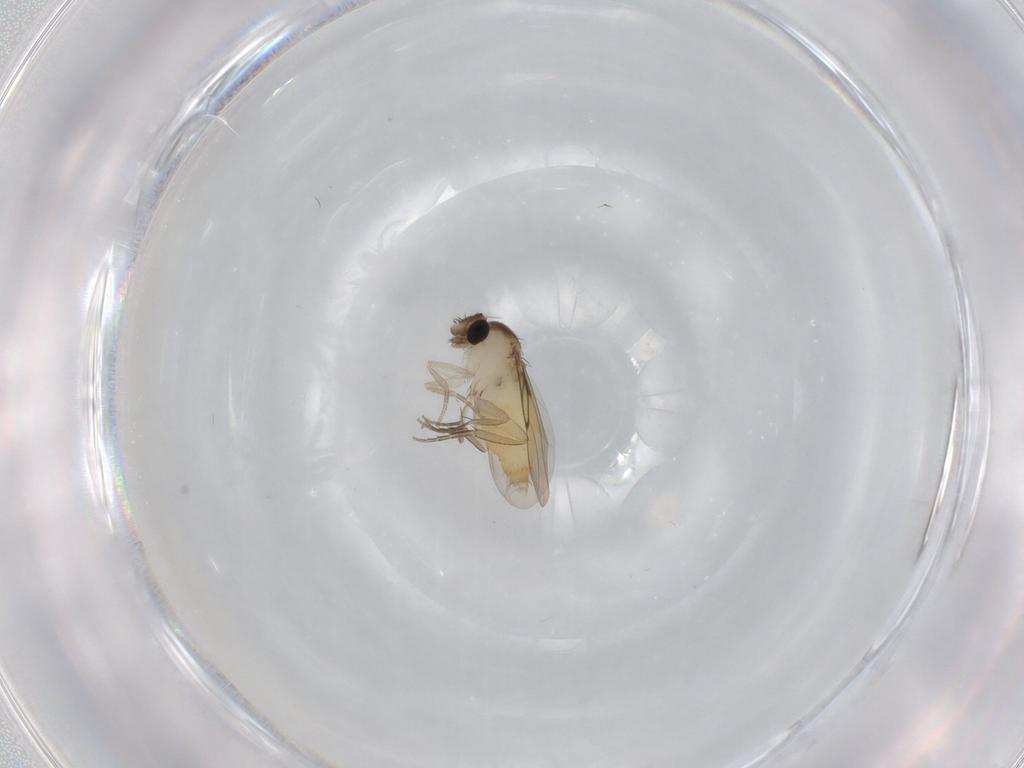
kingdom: Animalia
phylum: Arthropoda
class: Insecta
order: Diptera
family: Phoridae
